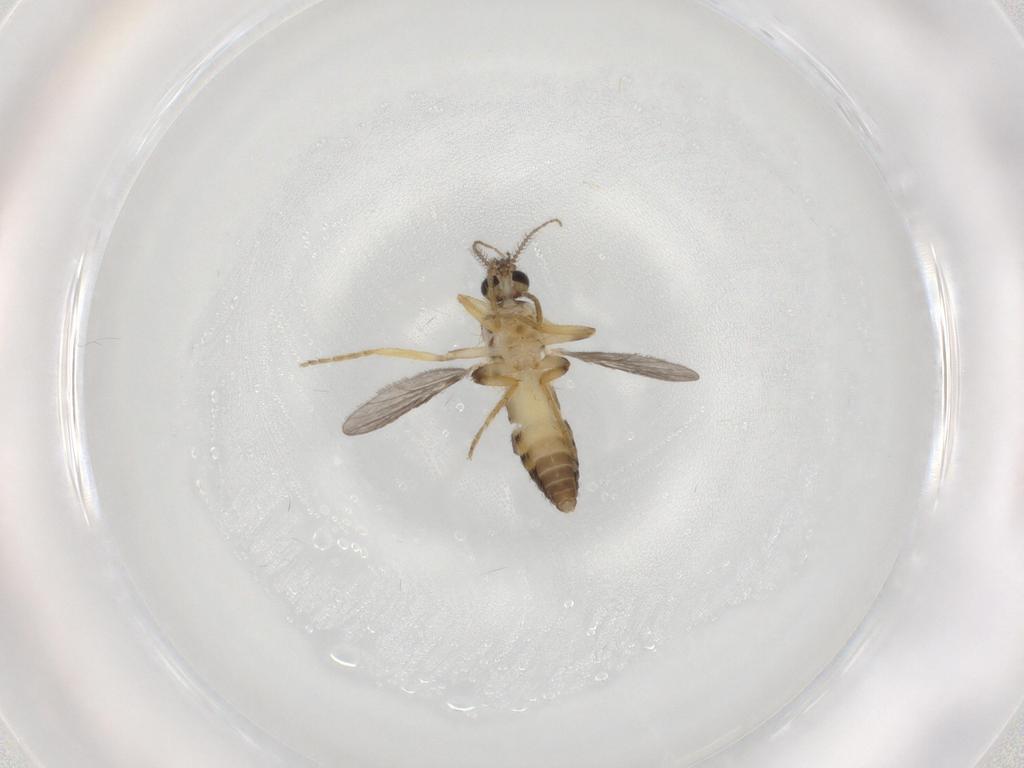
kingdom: Animalia
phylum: Arthropoda
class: Insecta
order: Diptera
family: Ceratopogonidae
